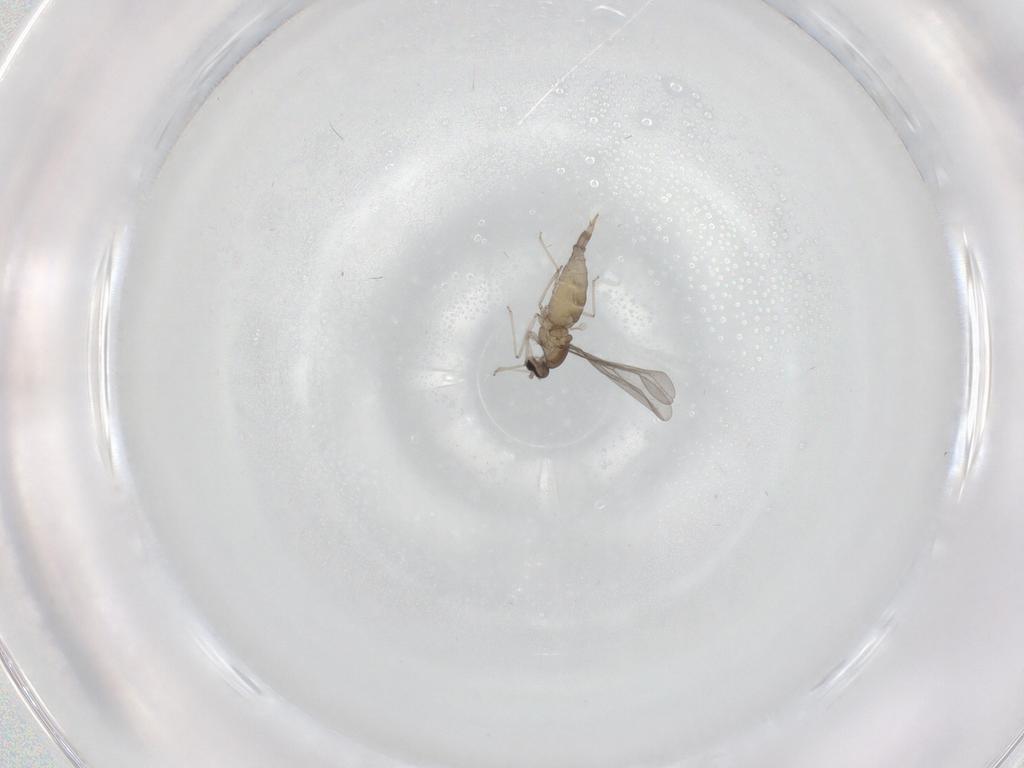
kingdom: Animalia
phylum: Arthropoda
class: Insecta
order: Diptera
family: Cecidomyiidae
